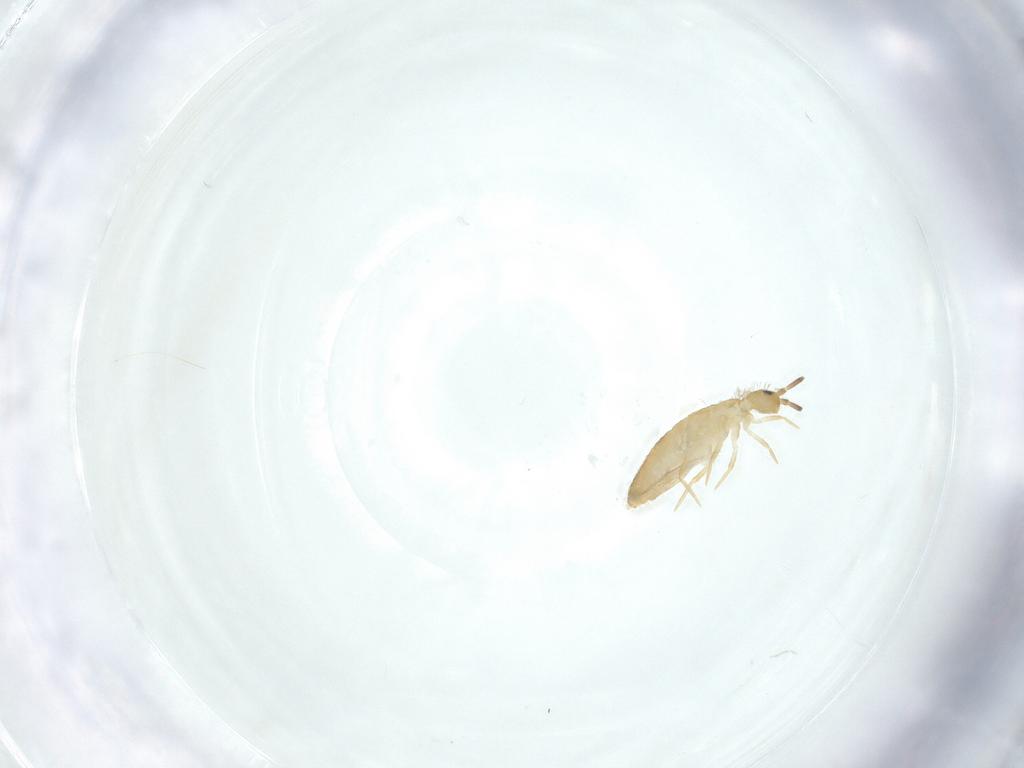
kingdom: Animalia
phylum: Arthropoda
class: Collembola
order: Entomobryomorpha
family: Entomobryidae
